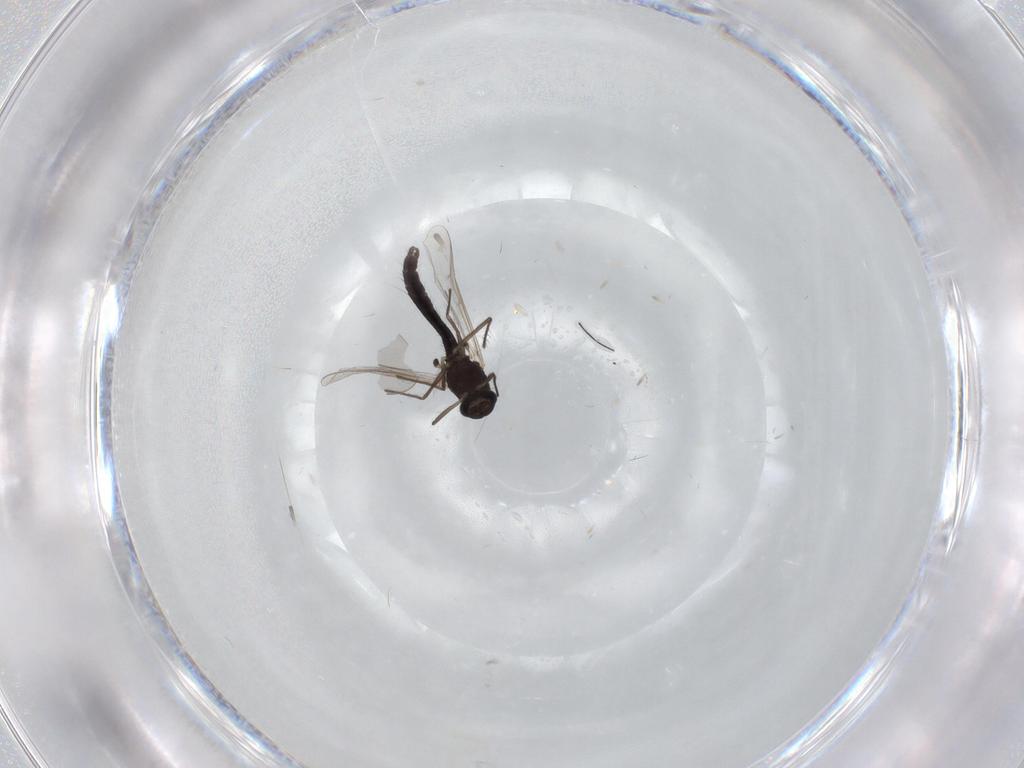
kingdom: Animalia
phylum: Arthropoda
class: Insecta
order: Diptera
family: Chironomidae
